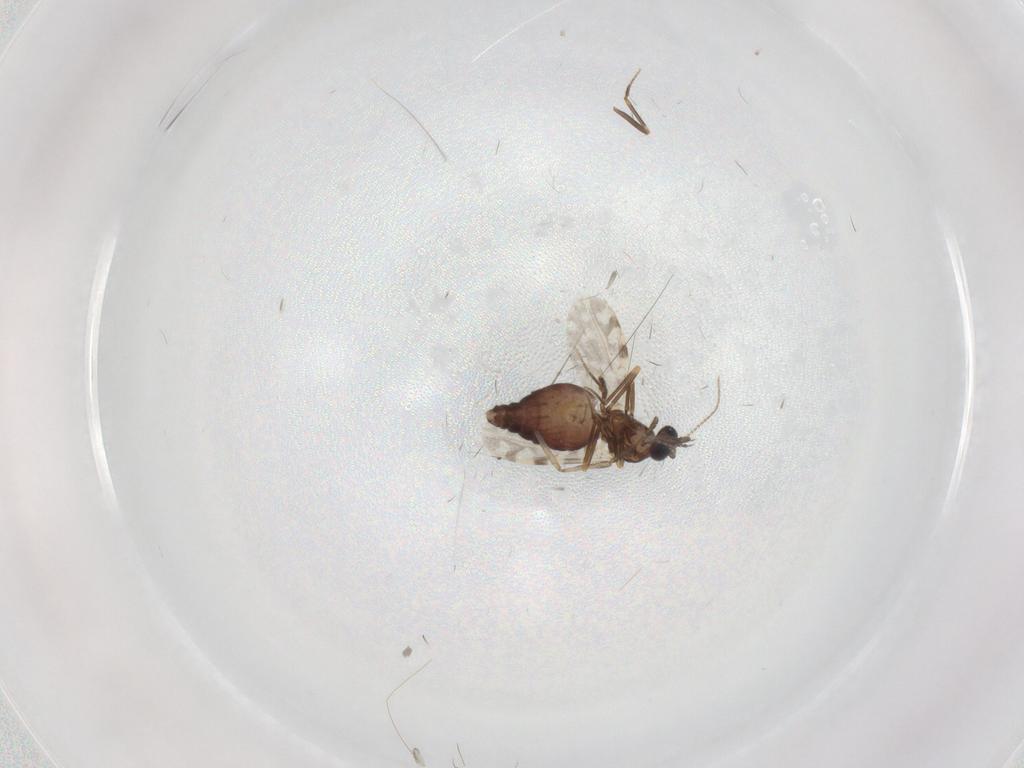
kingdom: Animalia
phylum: Arthropoda
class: Insecta
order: Diptera
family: Ceratopogonidae
